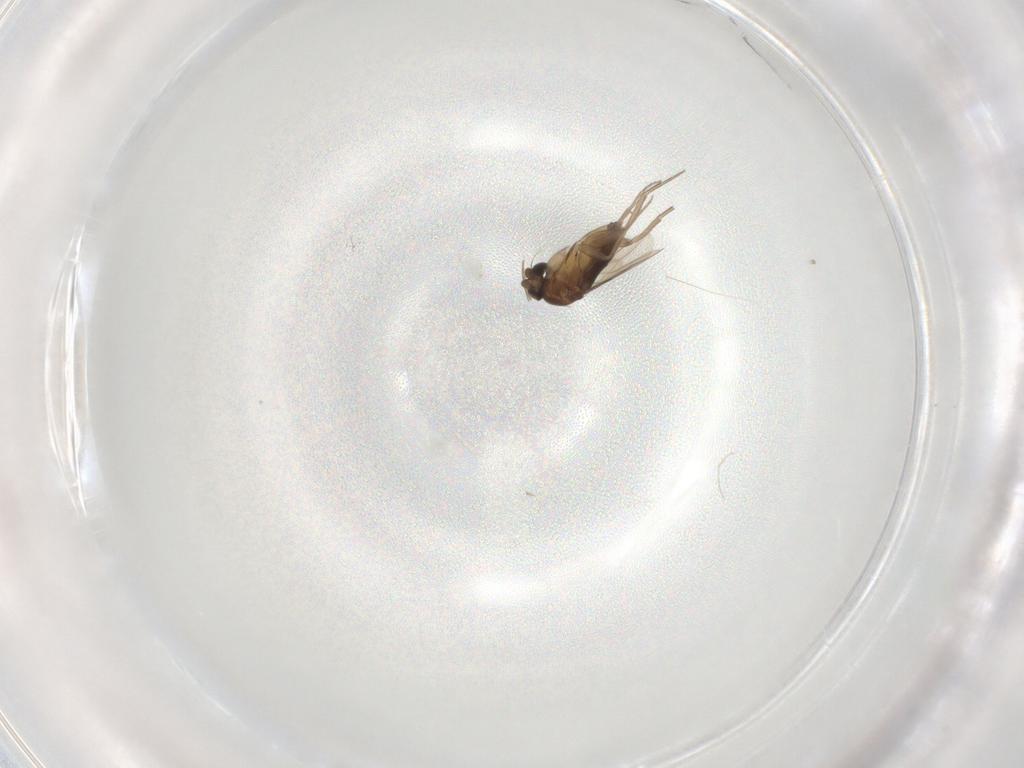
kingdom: Animalia
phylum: Arthropoda
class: Insecta
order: Diptera
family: Phoridae
